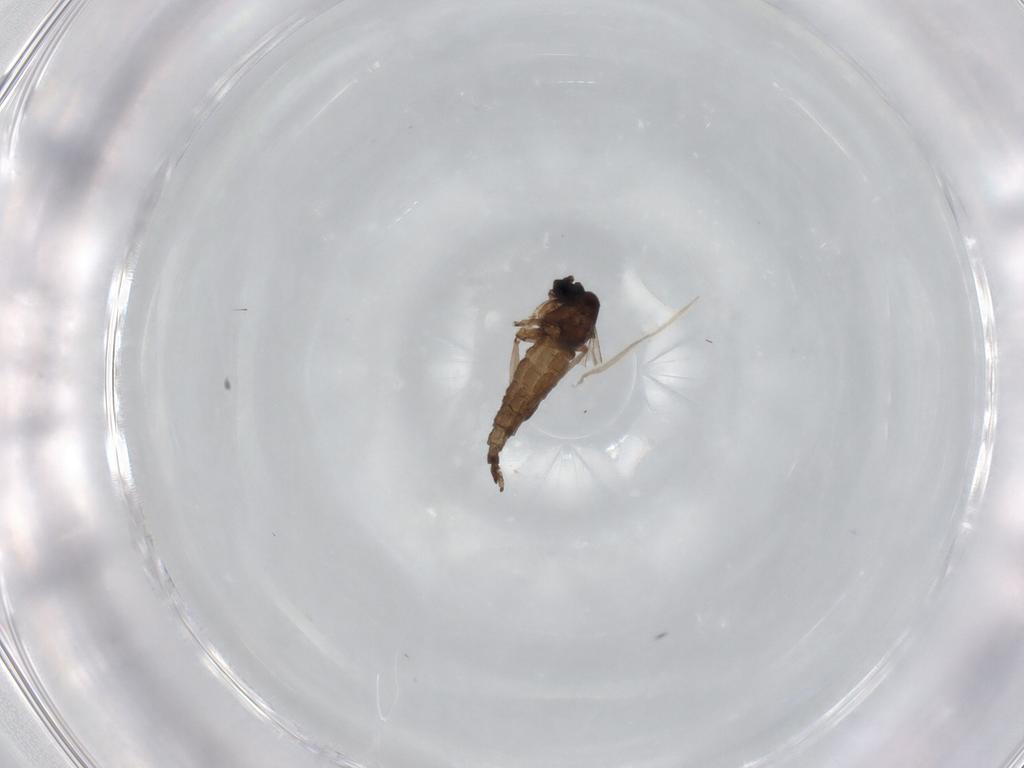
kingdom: Animalia
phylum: Arthropoda
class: Insecta
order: Diptera
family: Sciaridae
